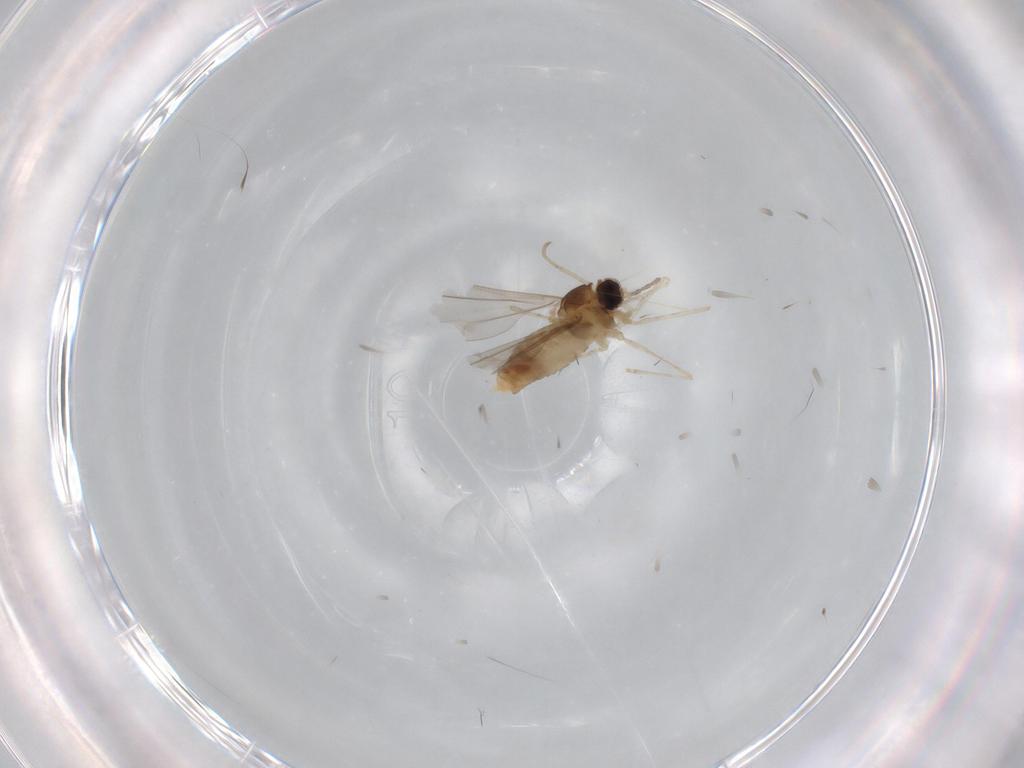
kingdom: Animalia
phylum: Arthropoda
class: Insecta
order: Diptera
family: Cecidomyiidae
